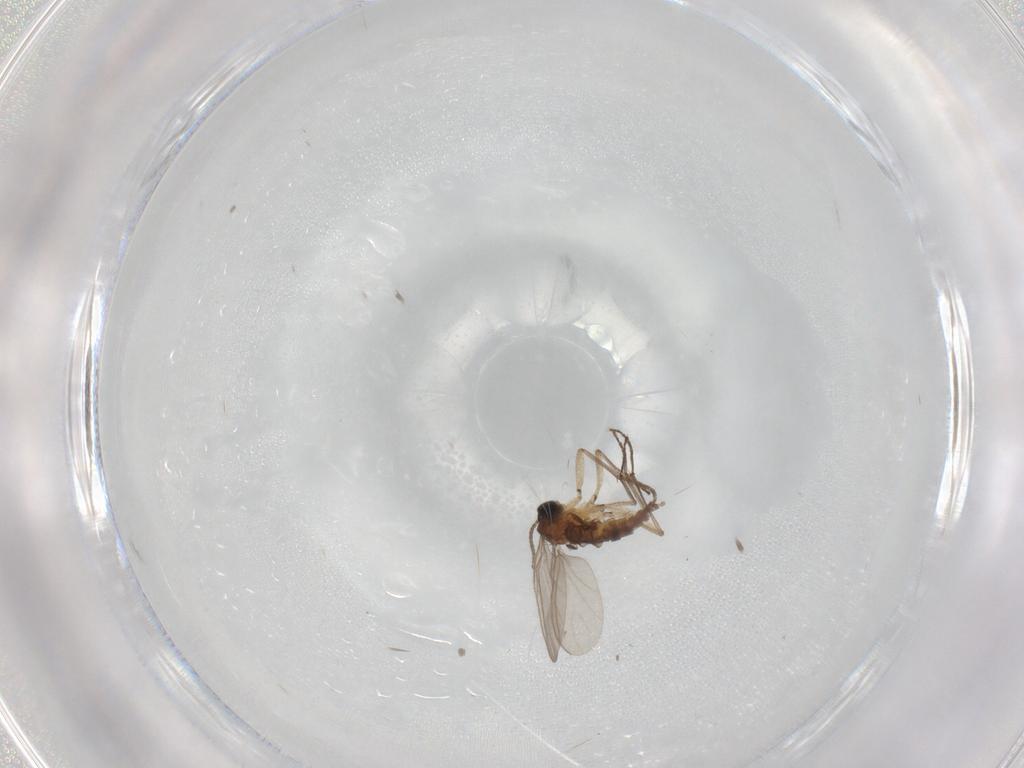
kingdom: Animalia
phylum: Arthropoda
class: Insecta
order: Diptera
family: Sciaridae
